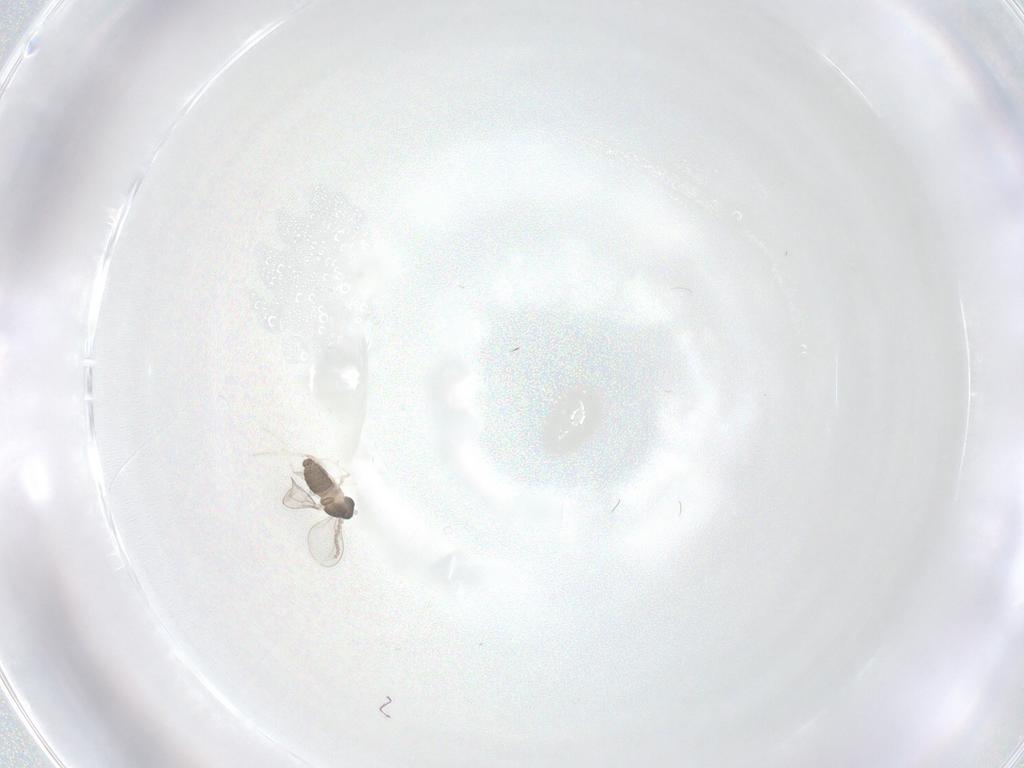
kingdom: Animalia
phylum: Arthropoda
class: Insecta
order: Diptera
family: Cecidomyiidae
